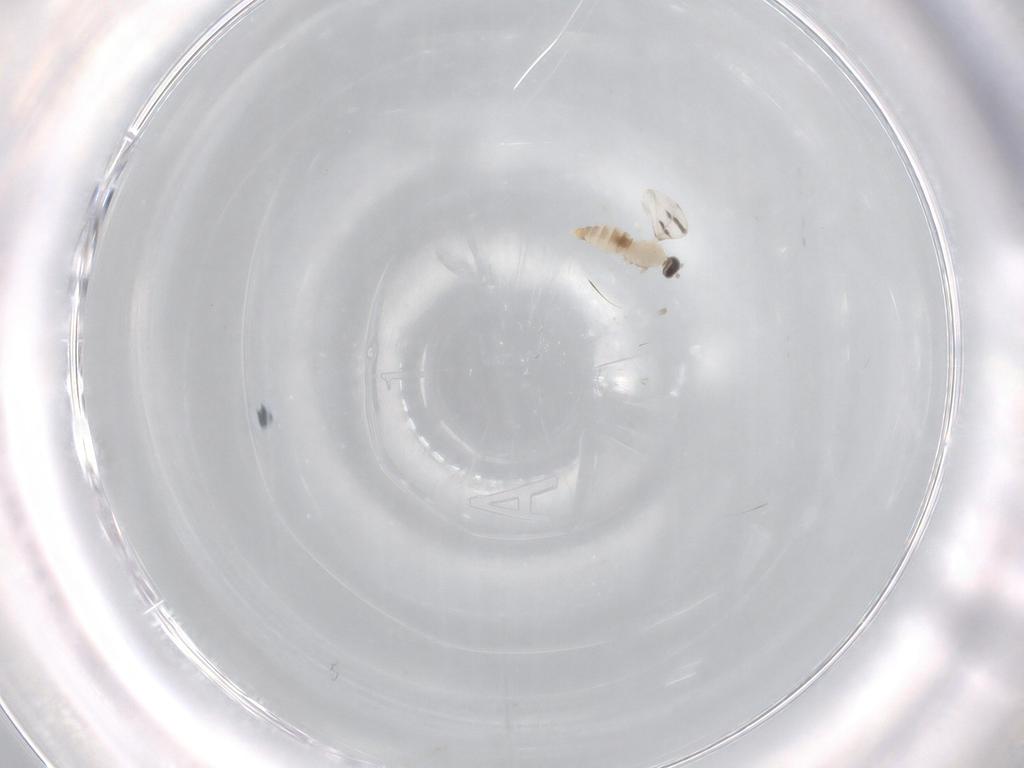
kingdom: Animalia
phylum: Arthropoda
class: Insecta
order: Diptera
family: Cecidomyiidae
